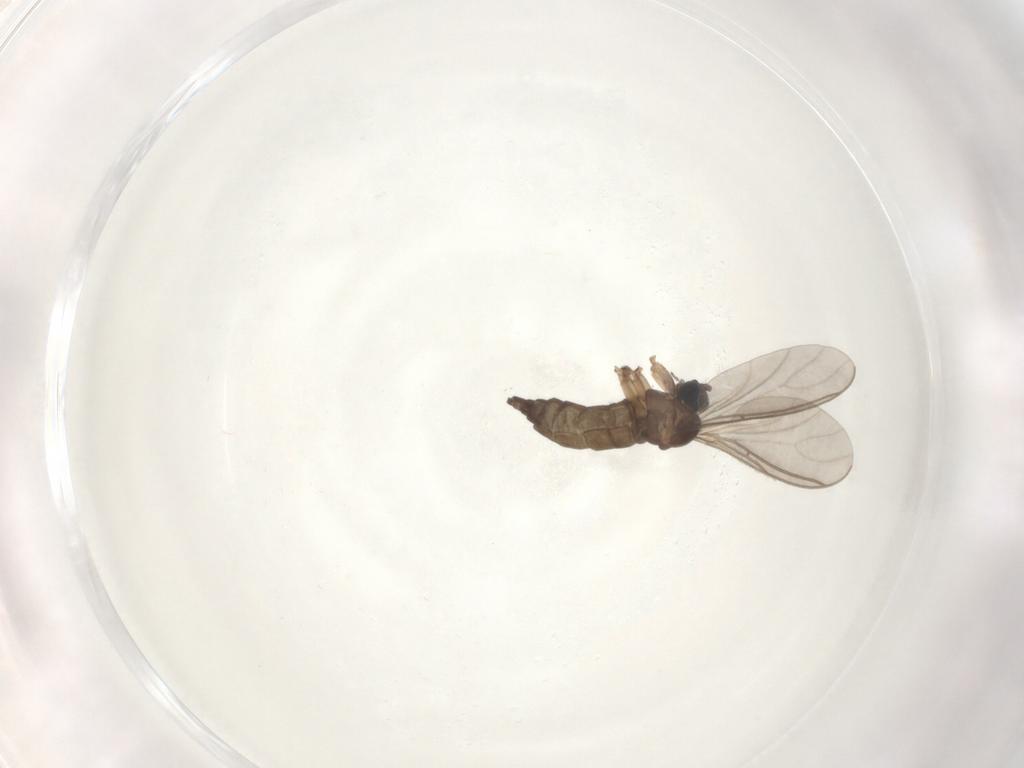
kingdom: Animalia
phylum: Arthropoda
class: Insecta
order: Diptera
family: Sciaridae
